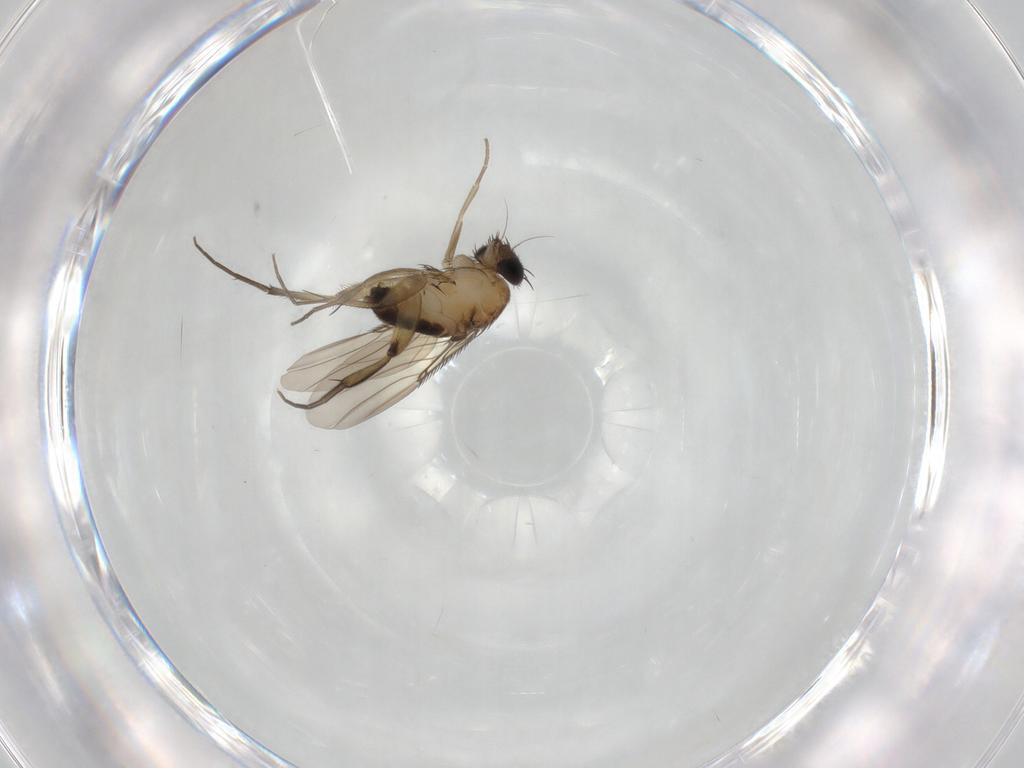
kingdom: Animalia
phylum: Arthropoda
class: Insecta
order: Diptera
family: Phoridae
